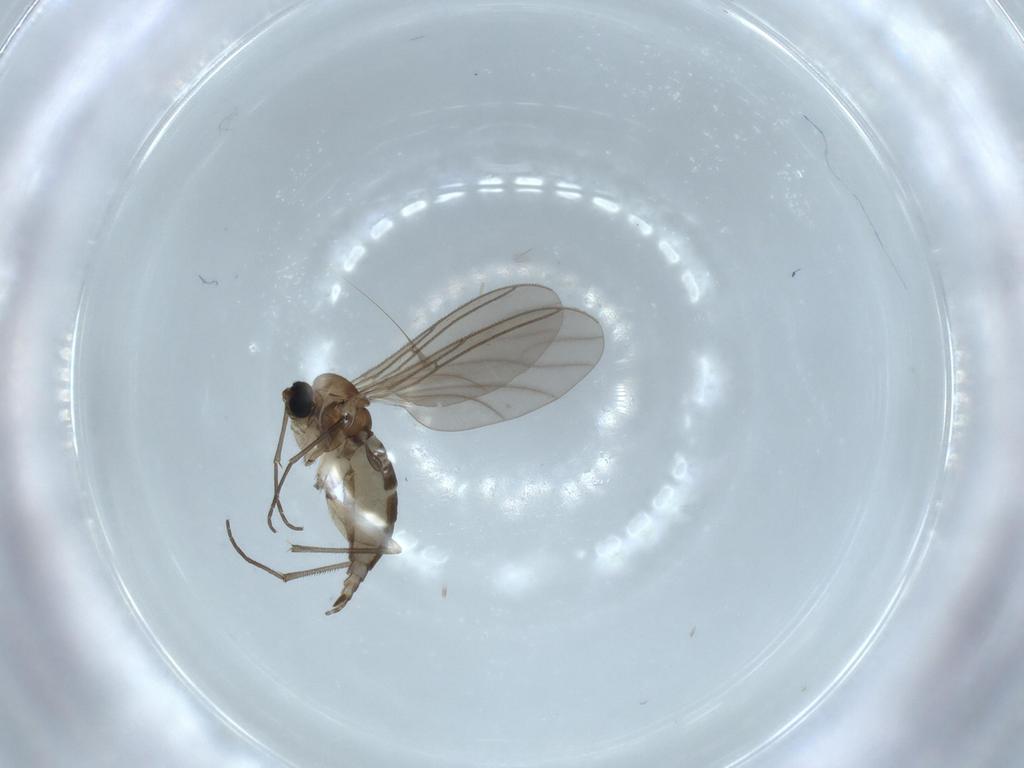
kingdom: Animalia
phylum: Arthropoda
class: Insecta
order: Diptera
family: Sciaridae
